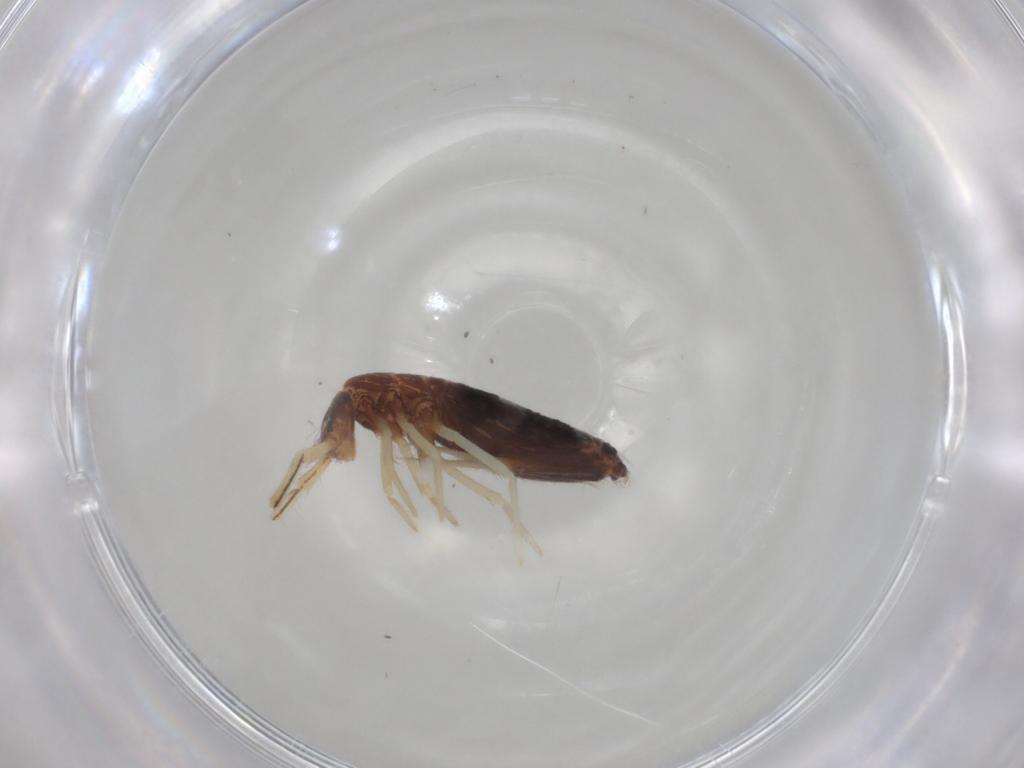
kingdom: Animalia
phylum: Arthropoda
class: Collembola
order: Entomobryomorpha
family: Entomobryidae
